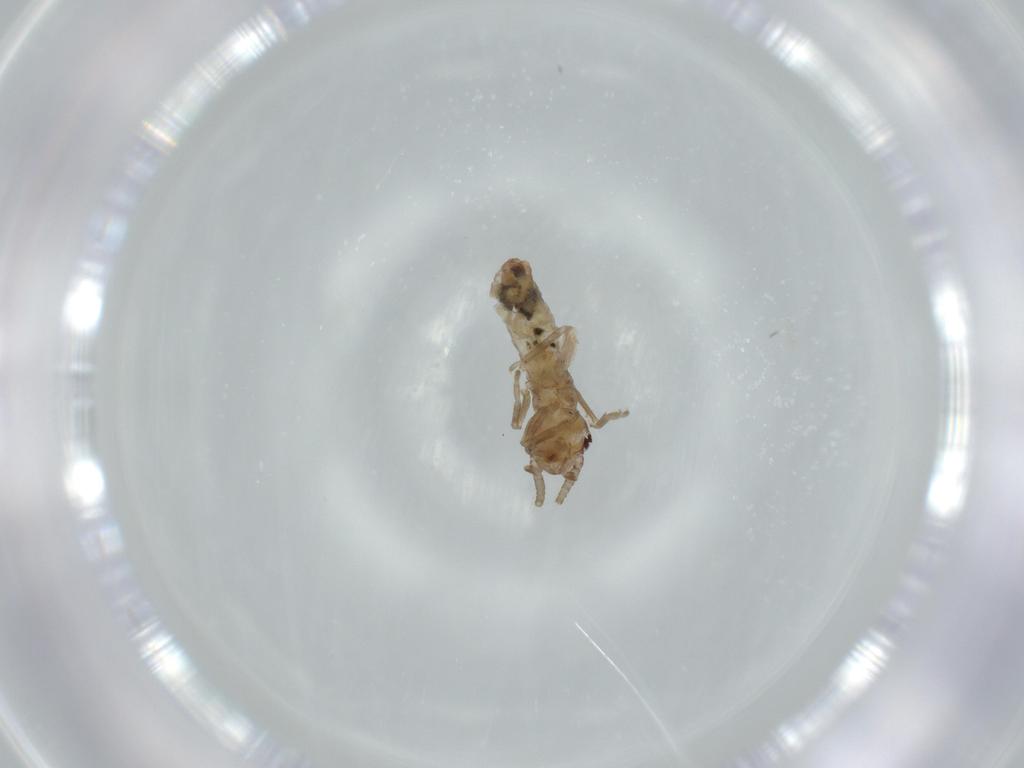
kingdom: Animalia
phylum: Arthropoda
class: Insecta
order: Orthoptera
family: Mogoplistidae
